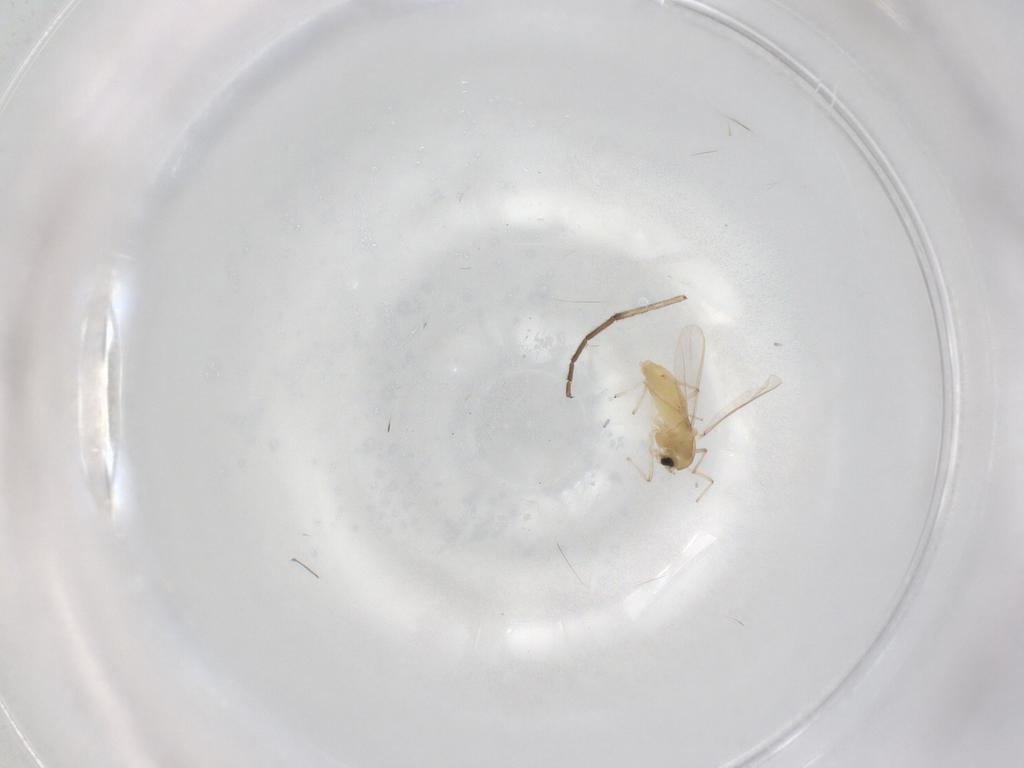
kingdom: Animalia
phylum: Arthropoda
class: Insecta
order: Diptera
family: Chironomidae
